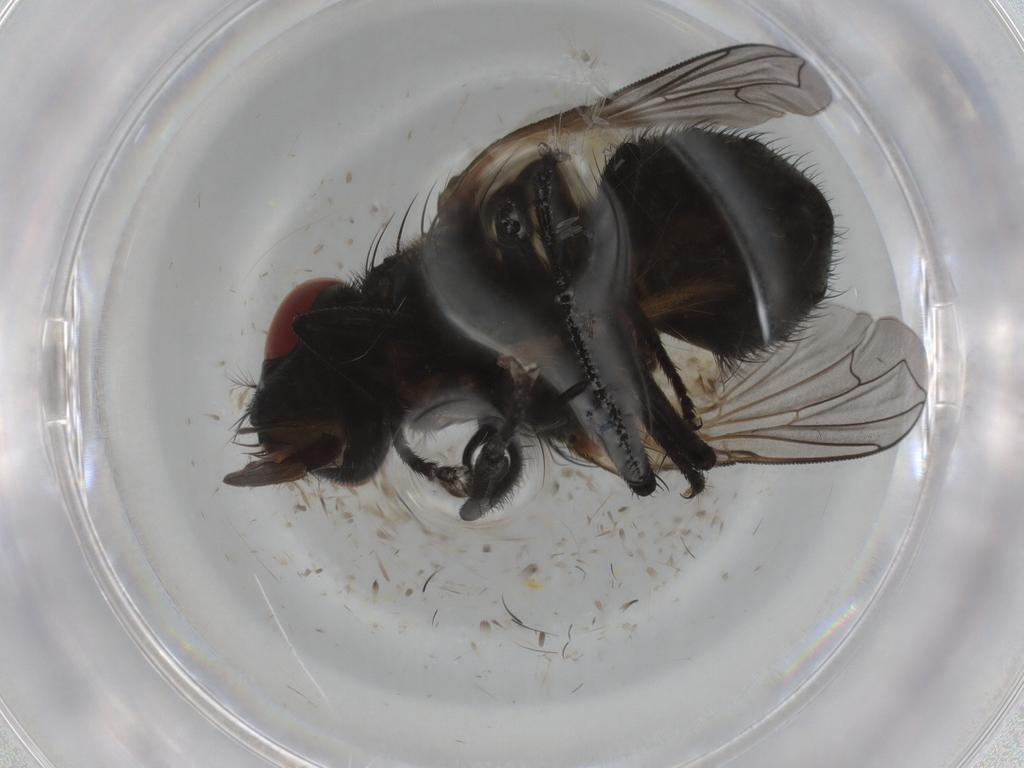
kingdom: Animalia
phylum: Arthropoda
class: Insecta
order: Diptera
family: Muscidae
